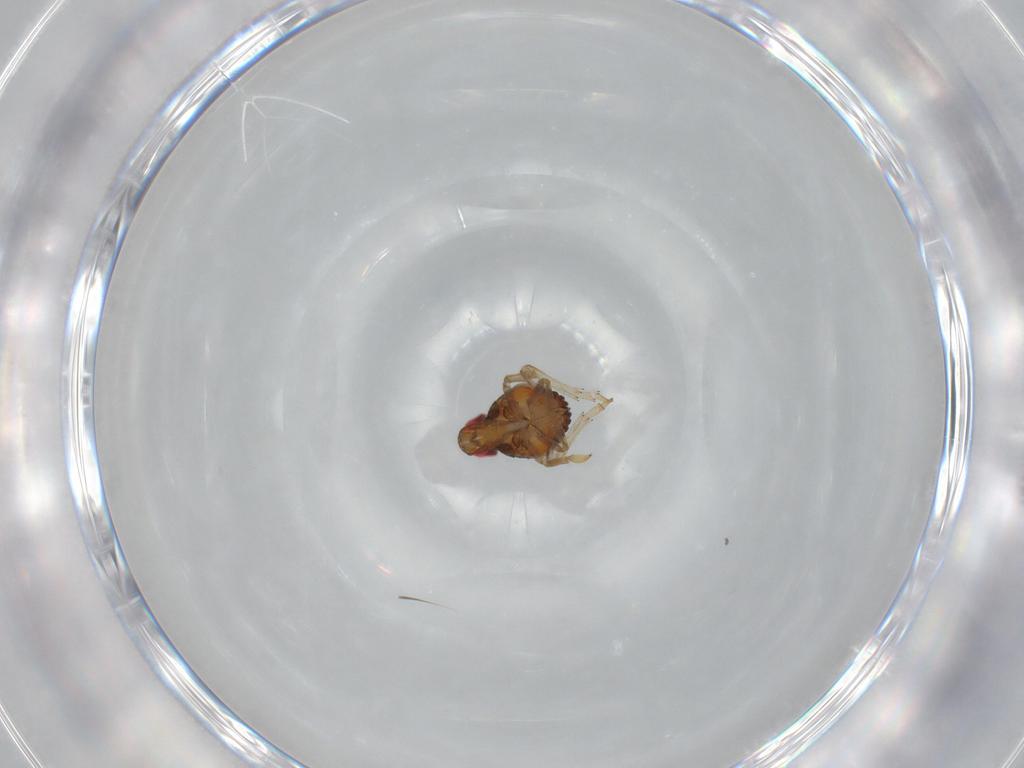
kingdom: Animalia
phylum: Arthropoda
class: Insecta
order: Hemiptera
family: Issidae
